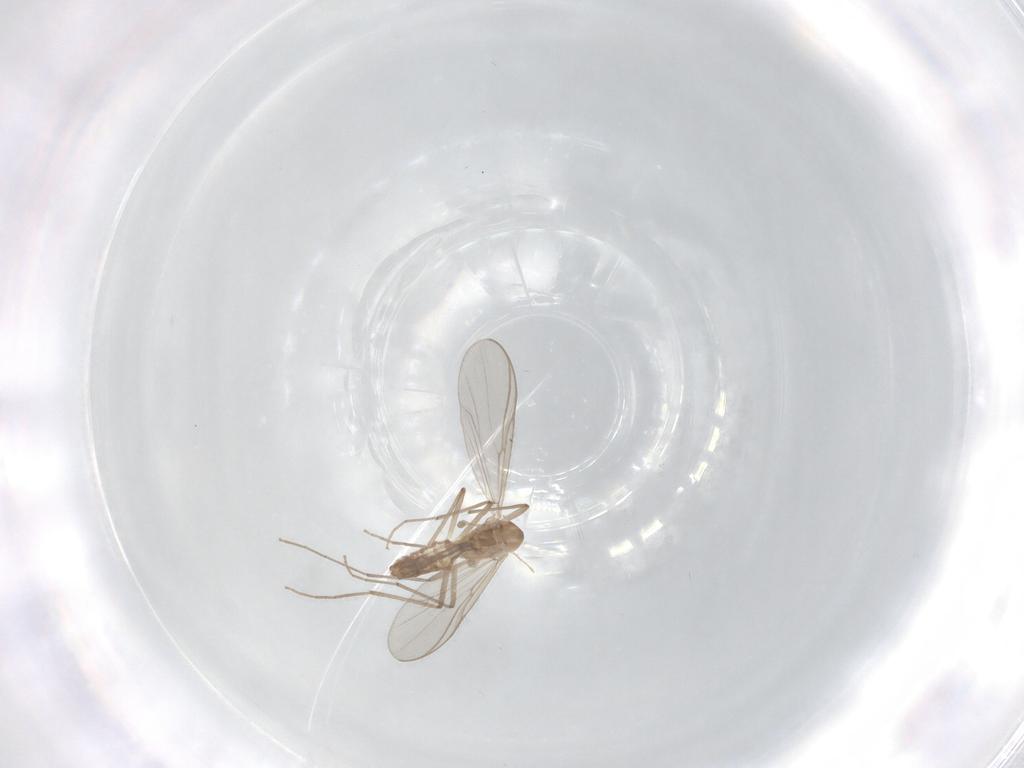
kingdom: Animalia
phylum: Arthropoda
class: Insecta
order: Diptera
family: Chironomidae
